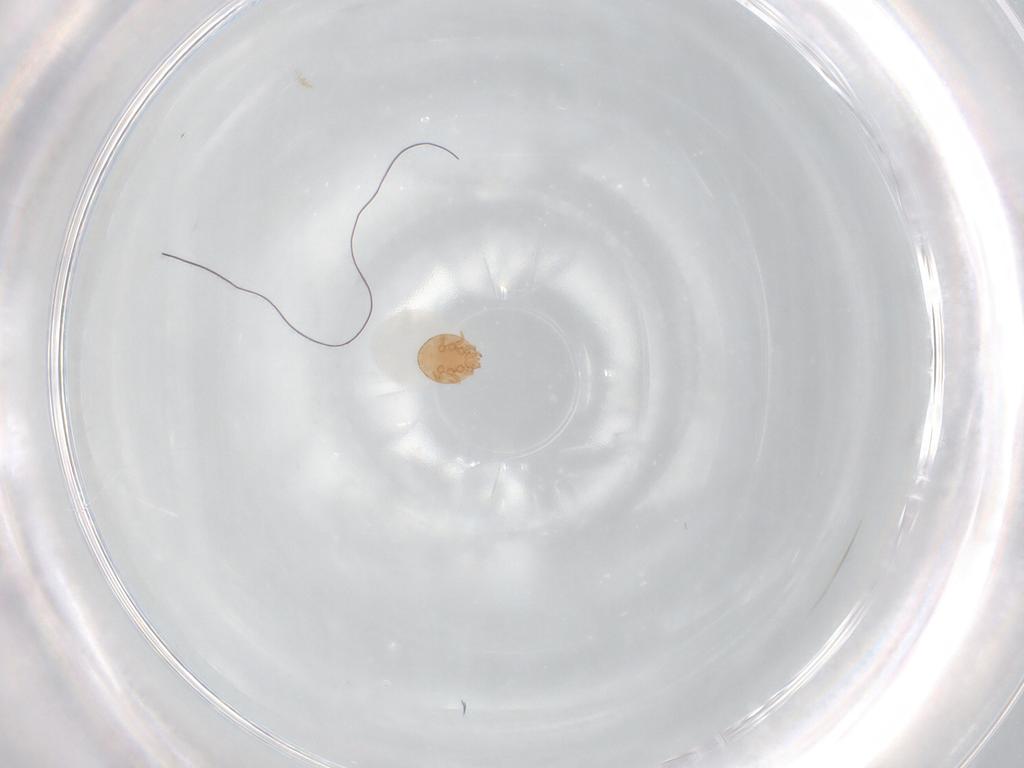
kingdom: Animalia
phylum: Arthropoda
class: Arachnida
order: Mesostigmata
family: Trematuridae
